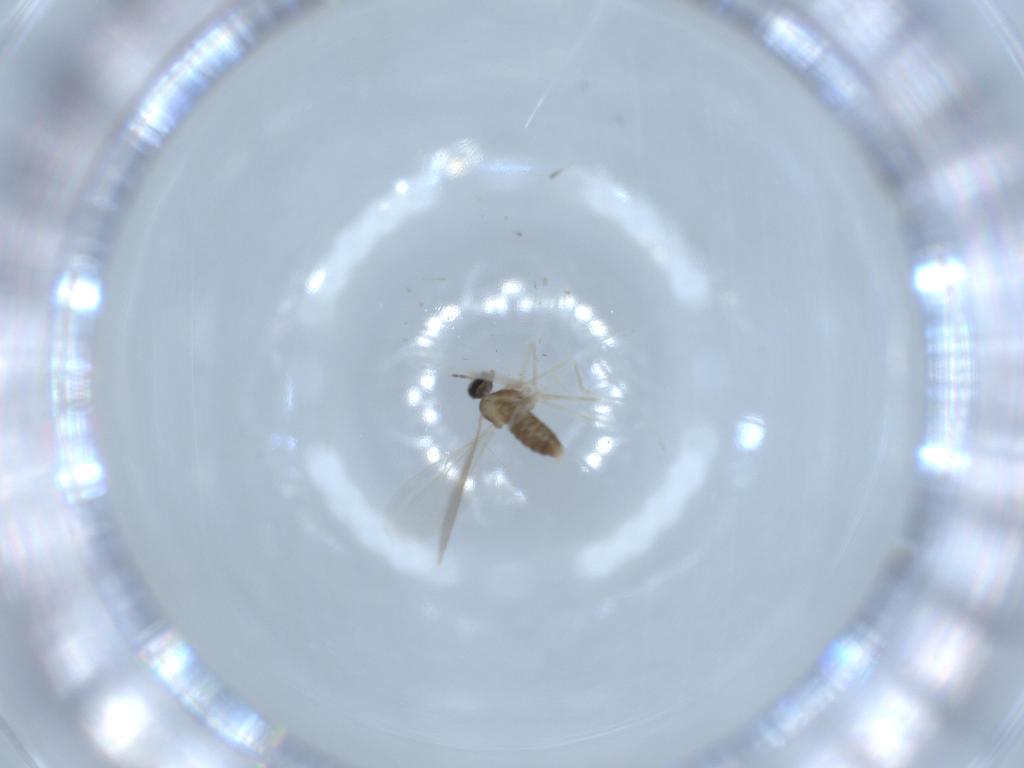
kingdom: Animalia
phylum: Arthropoda
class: Insecta
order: Diptera
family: Cecidomyiidae
